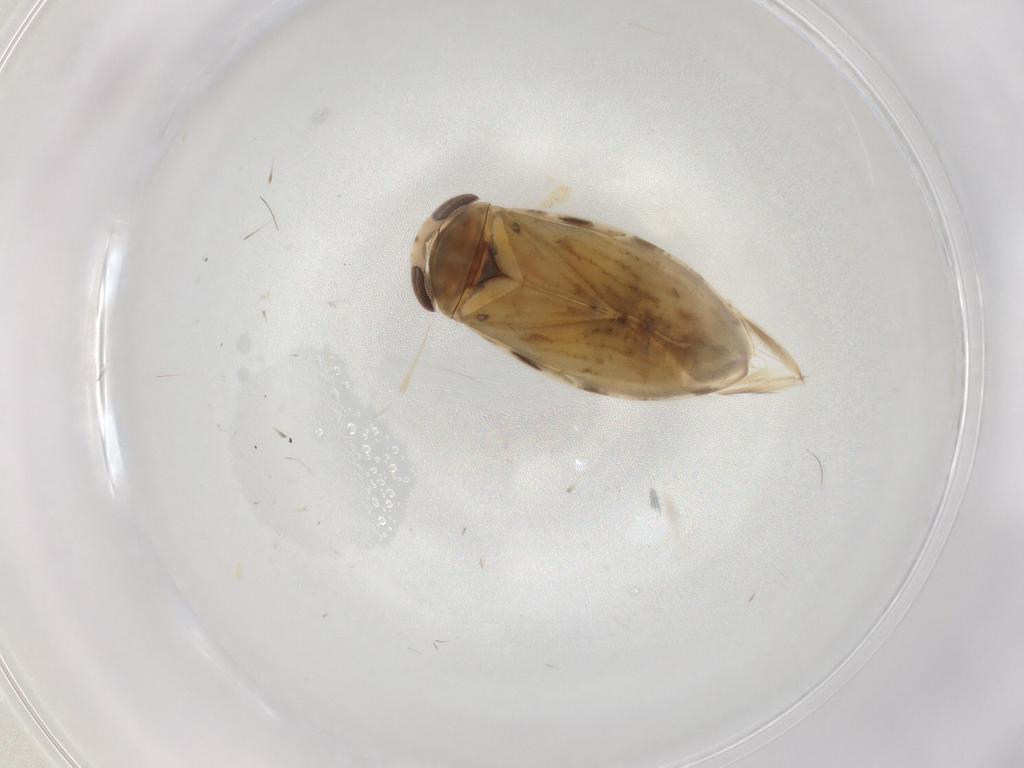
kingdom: Animalia
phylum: Arthropoda
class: Insecta
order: Hemiptera
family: Corixidae
